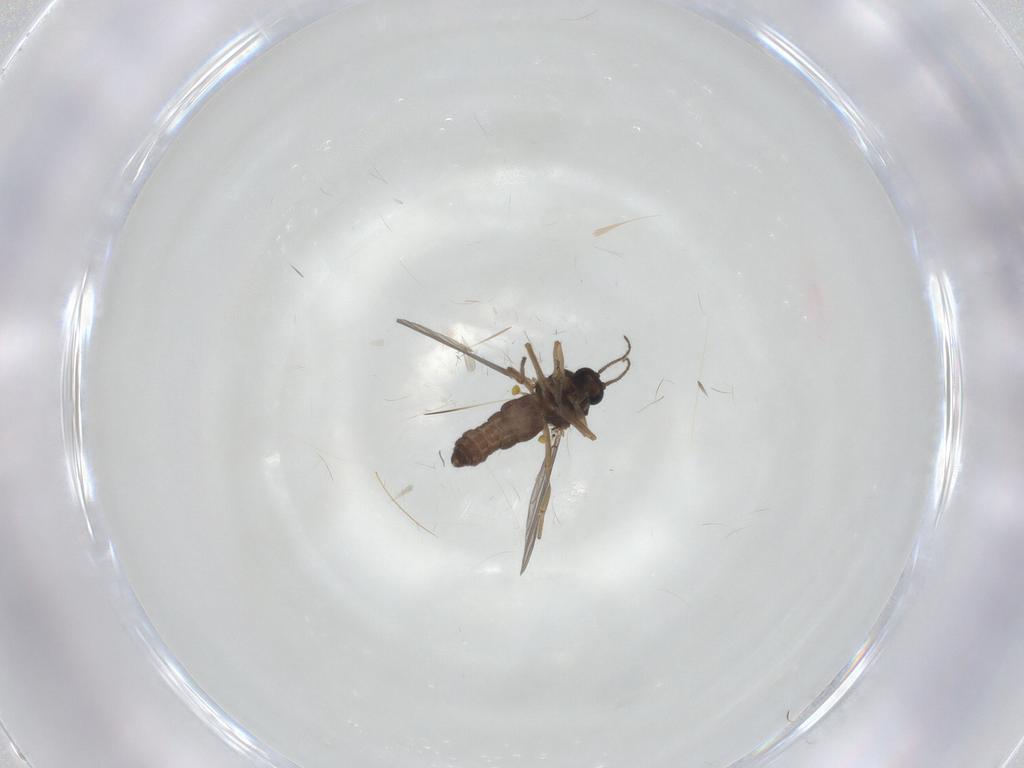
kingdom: Animalia
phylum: Arthropoda
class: Insecta
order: Diptera
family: Ceratopogonidae
